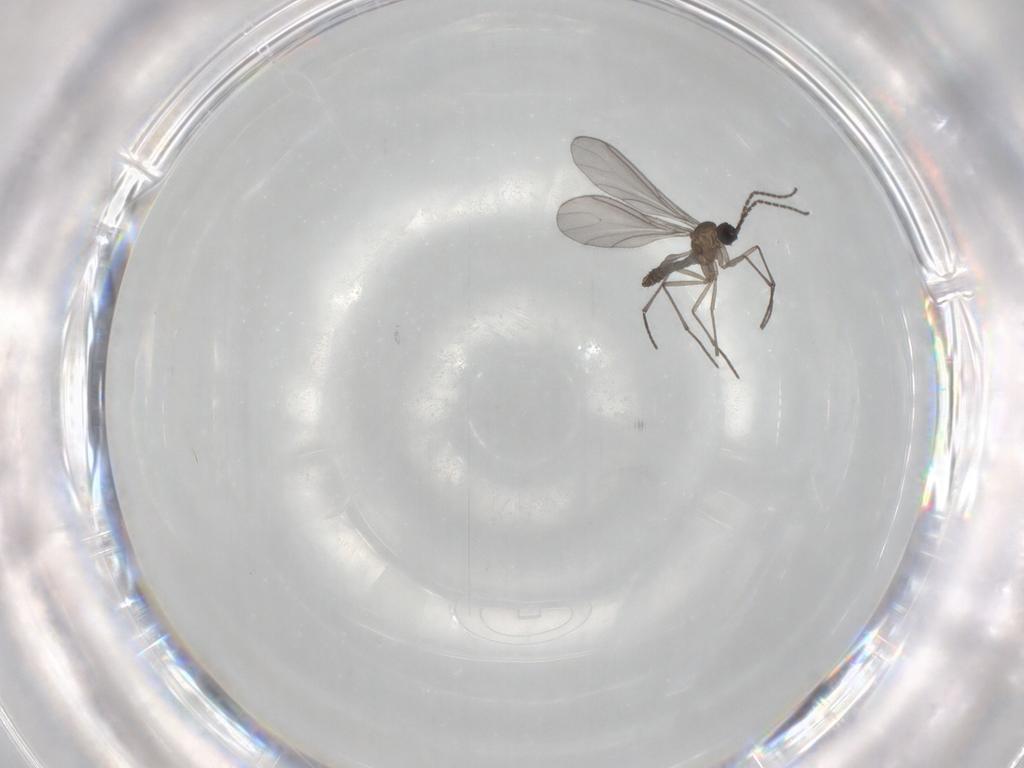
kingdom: Animalia
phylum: Arthropoda
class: Insecta
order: Diptera
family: Sciaridae
